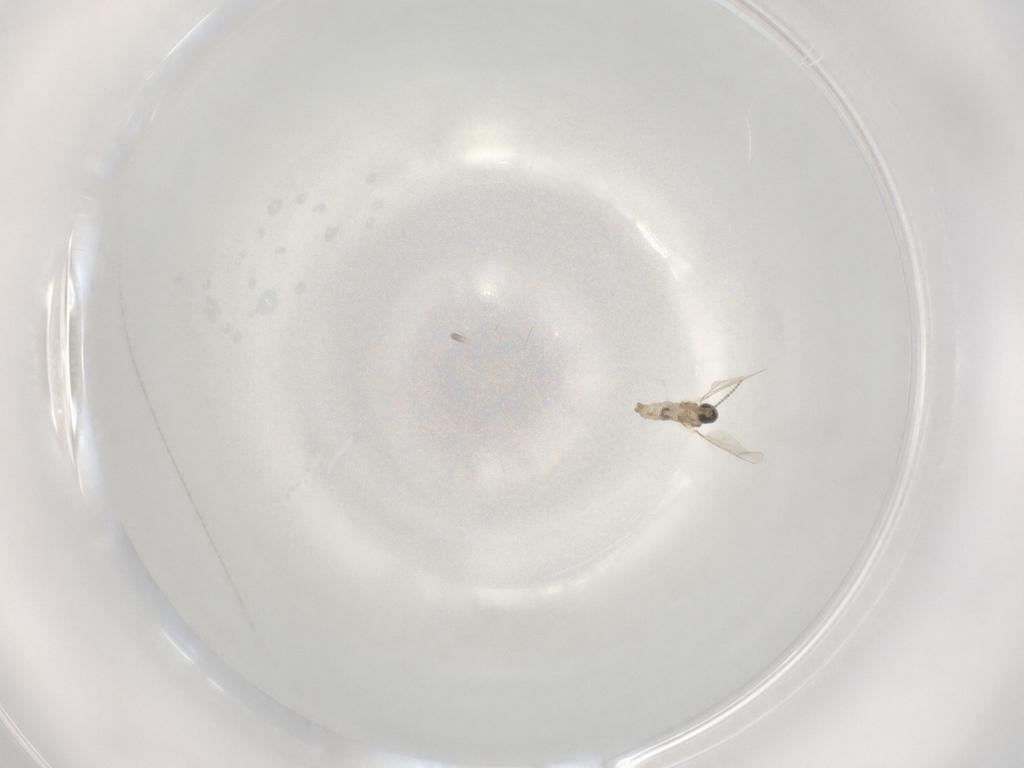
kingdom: Animalia
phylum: Arthropoda
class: Insecta
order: Diptera
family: Cecidomyiidae
